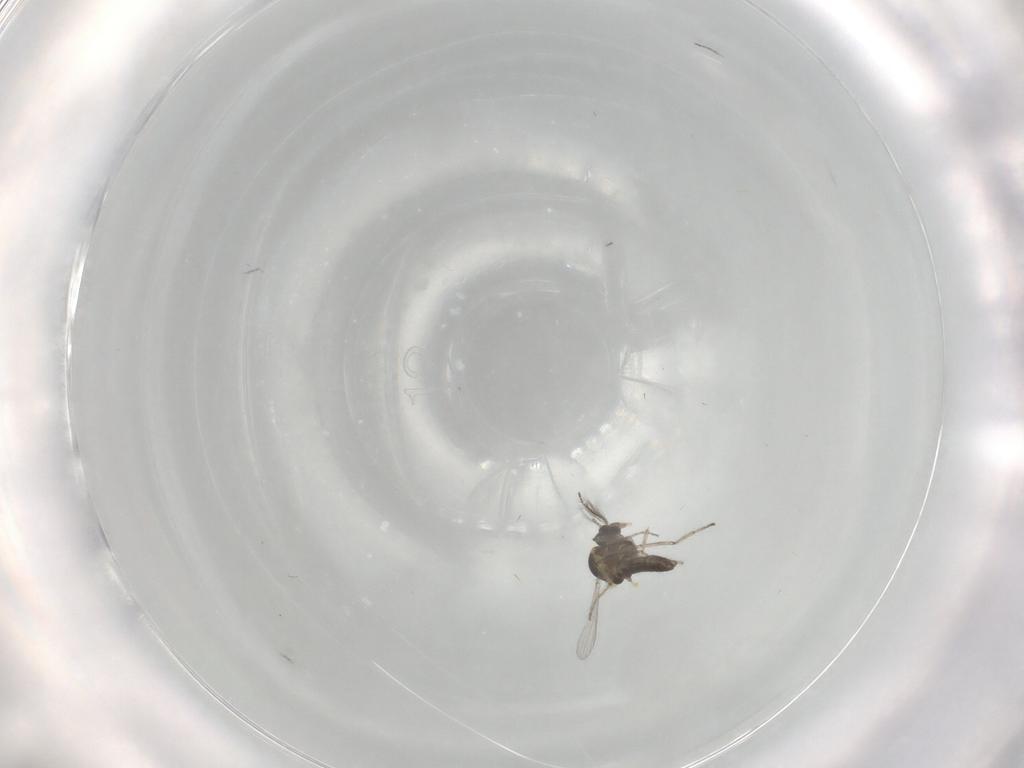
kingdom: Animalia
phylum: Arthropoda
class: Insecta
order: Diptera
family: Ceratopogonidae
